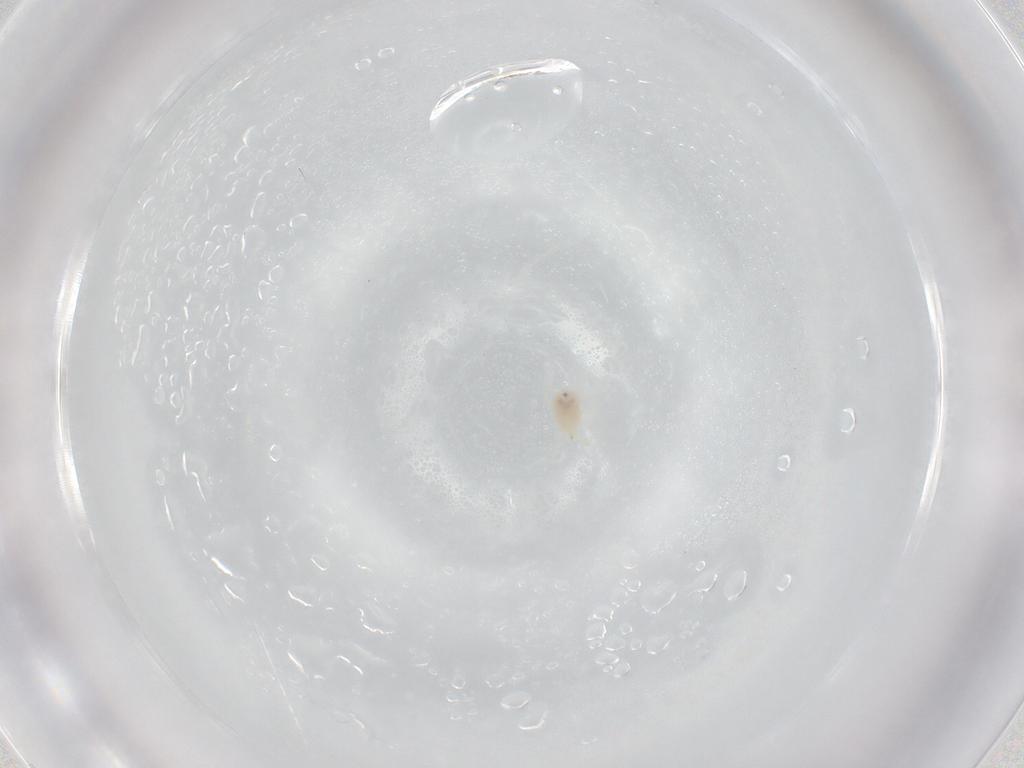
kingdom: Animalia
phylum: Arthropoda
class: Arachnida
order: Mesostigmata
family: Phytoseiidae
